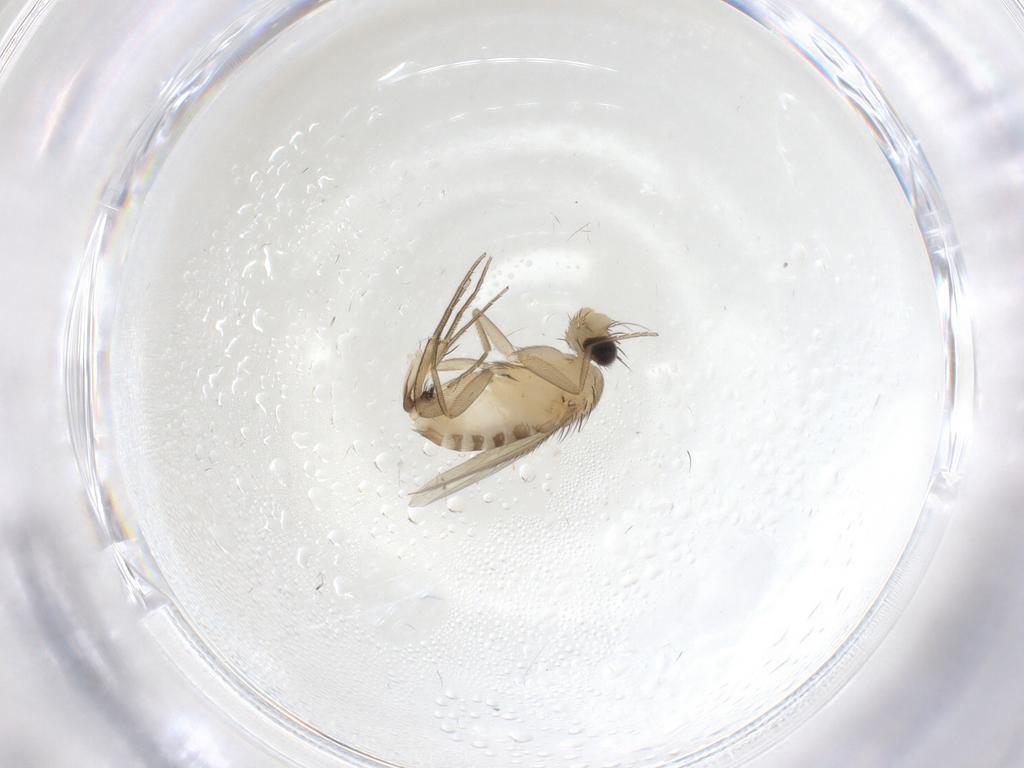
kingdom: Animalia
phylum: Arthropoda
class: Insecta
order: Diptera
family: Phoridae
